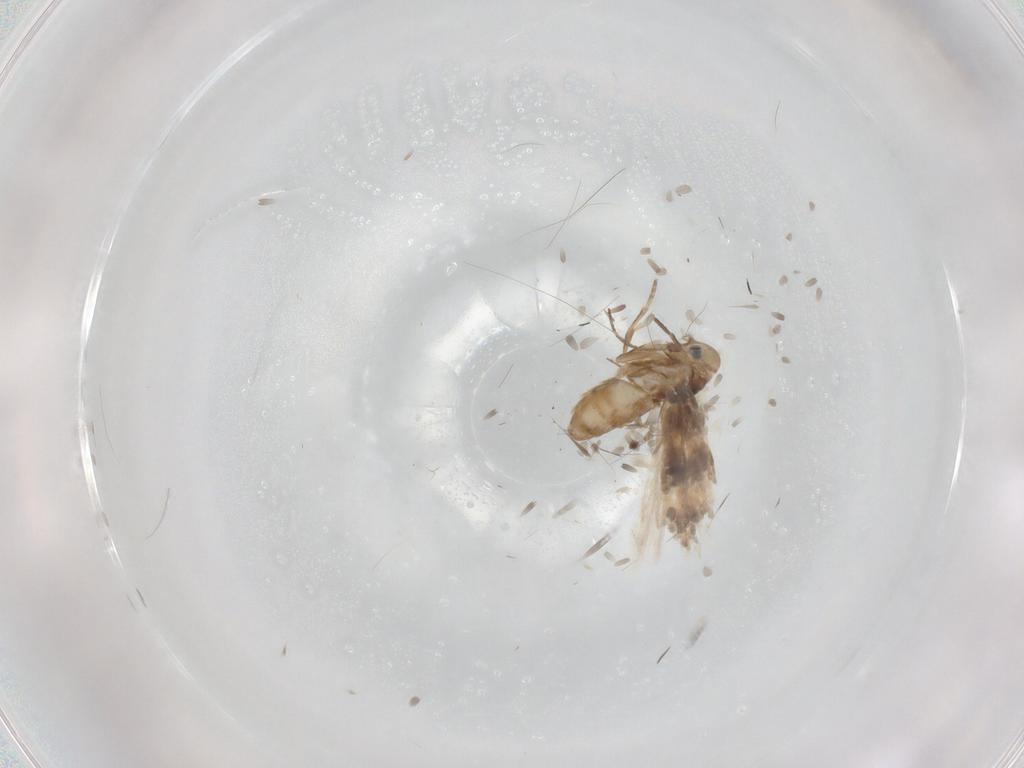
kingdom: Animalia
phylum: Arthropoda
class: Insecta
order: Lepidoptera
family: Nymphalidae
